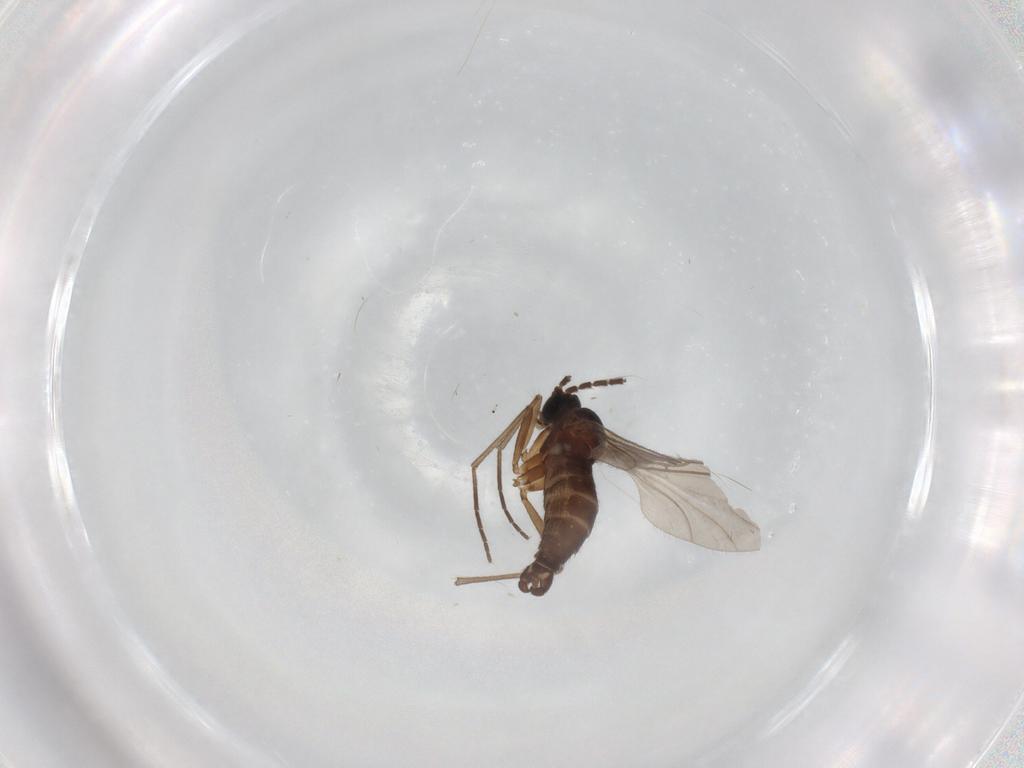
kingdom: Animalia
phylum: Arthropoda
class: Insecta
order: Diptera
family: Sciaridae
